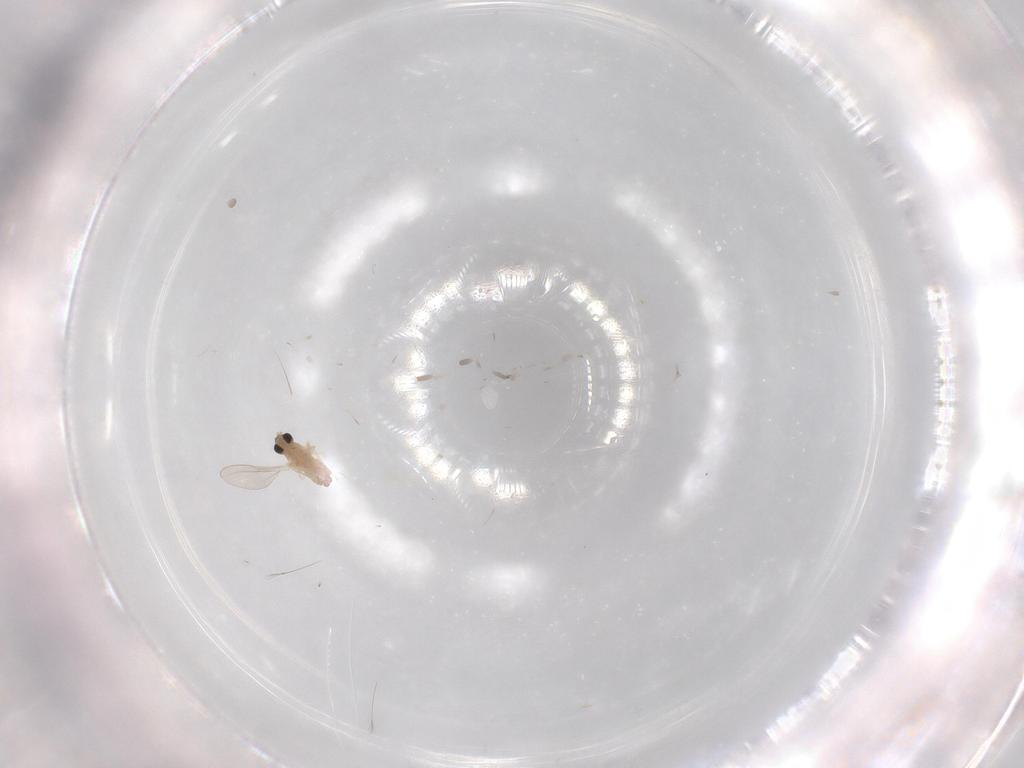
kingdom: Animalia
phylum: Arthropoda
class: Insecta
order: Diptera
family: Cecidomyiidae
